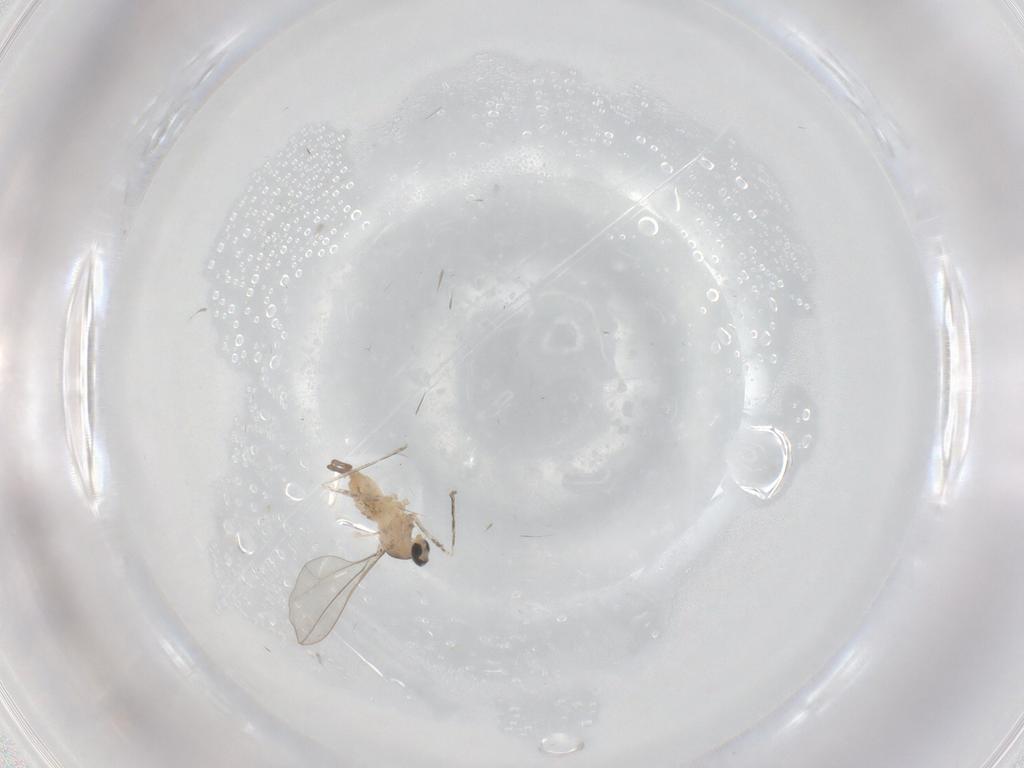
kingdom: Animalia
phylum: Arthropoda
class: Insecta
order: Diptera
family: Cecidomyiidae
